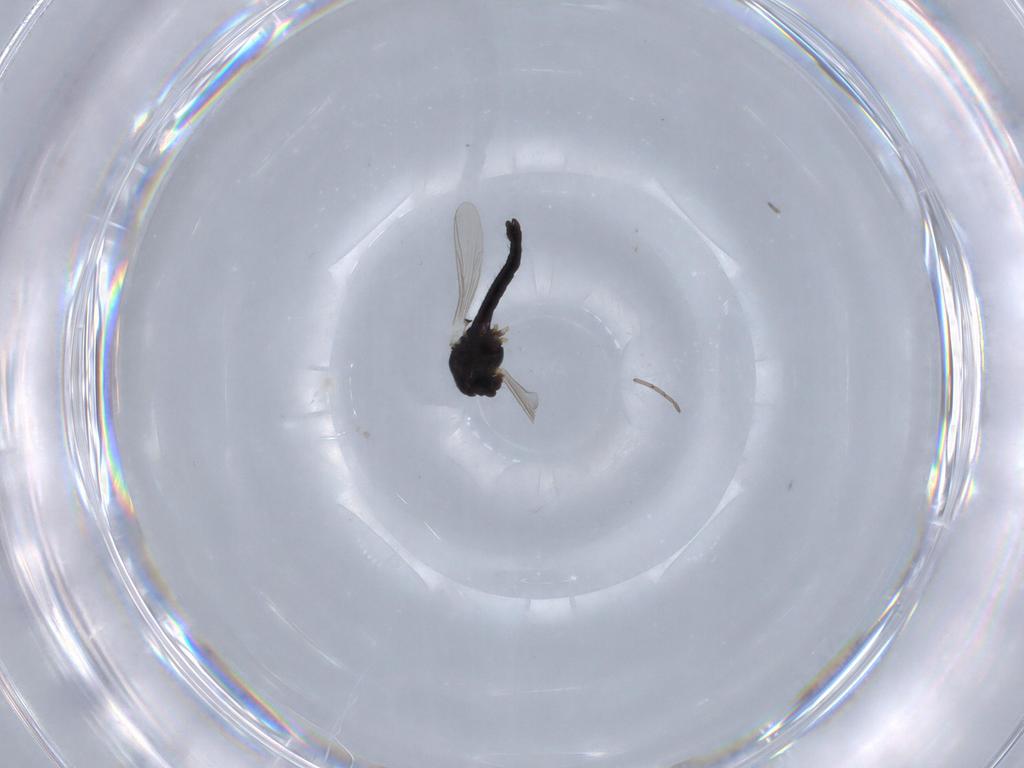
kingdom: Animalia
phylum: Arthropoda
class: Insecta
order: Diptera
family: Chironomidae
